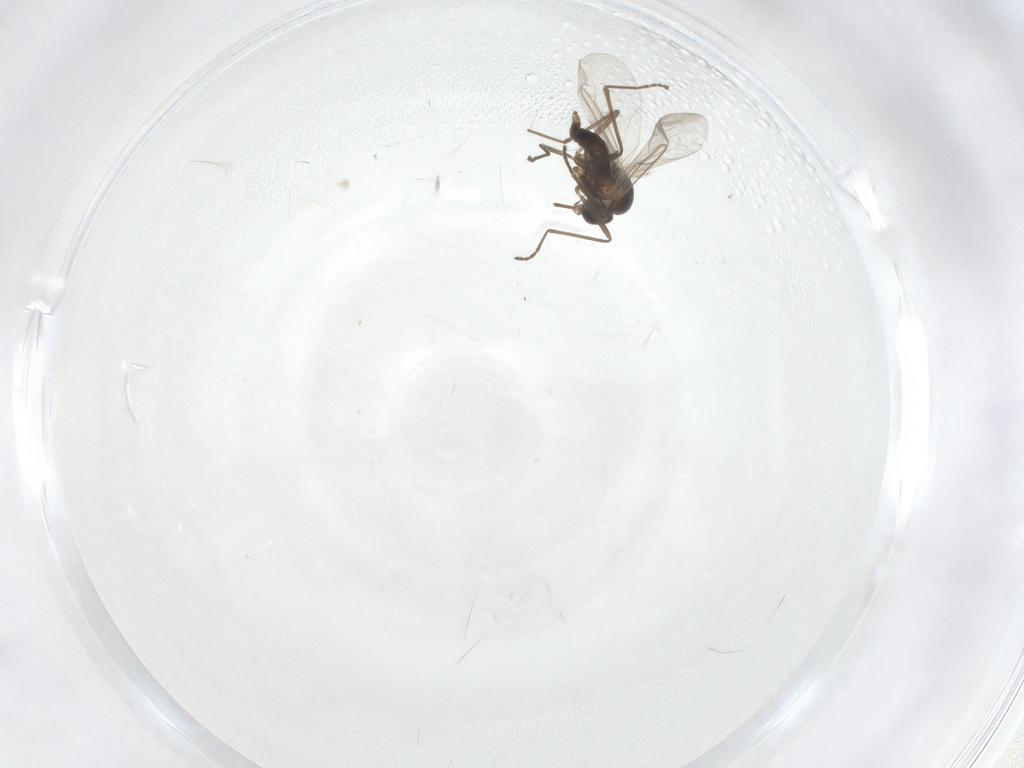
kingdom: Animalia
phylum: Arthropoda
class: Insecta
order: Diptera
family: Cecidomyiidae
